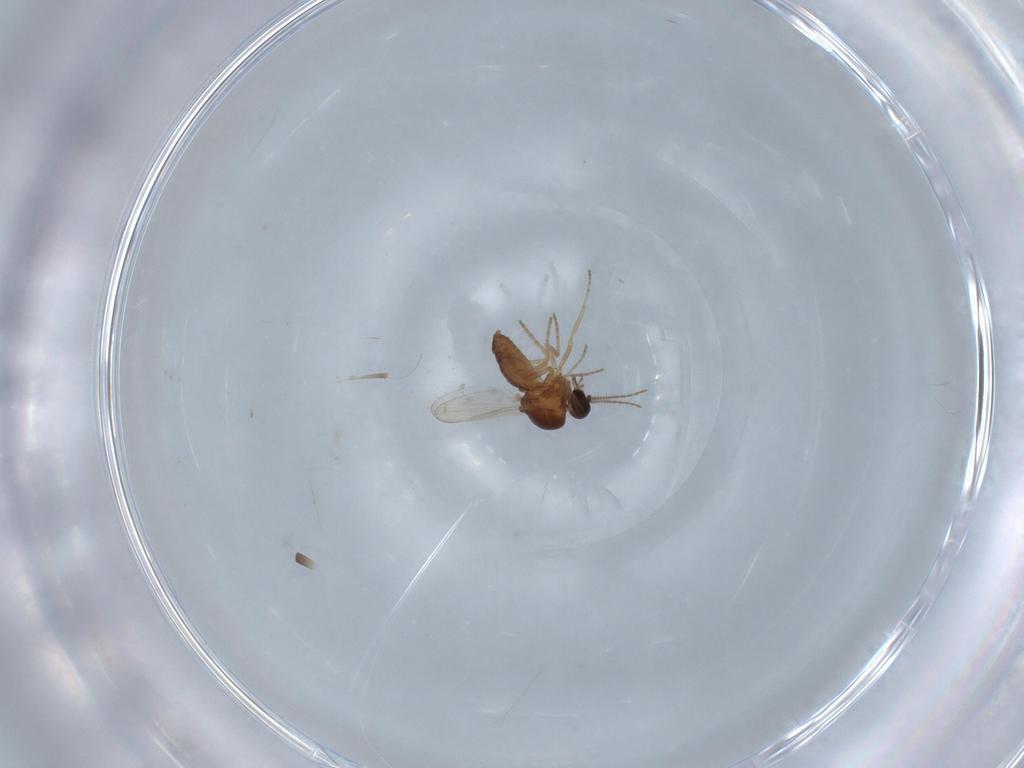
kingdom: Animalia
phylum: Arthropoda
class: Insecta
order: Diptera
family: Ceratopogonidae
